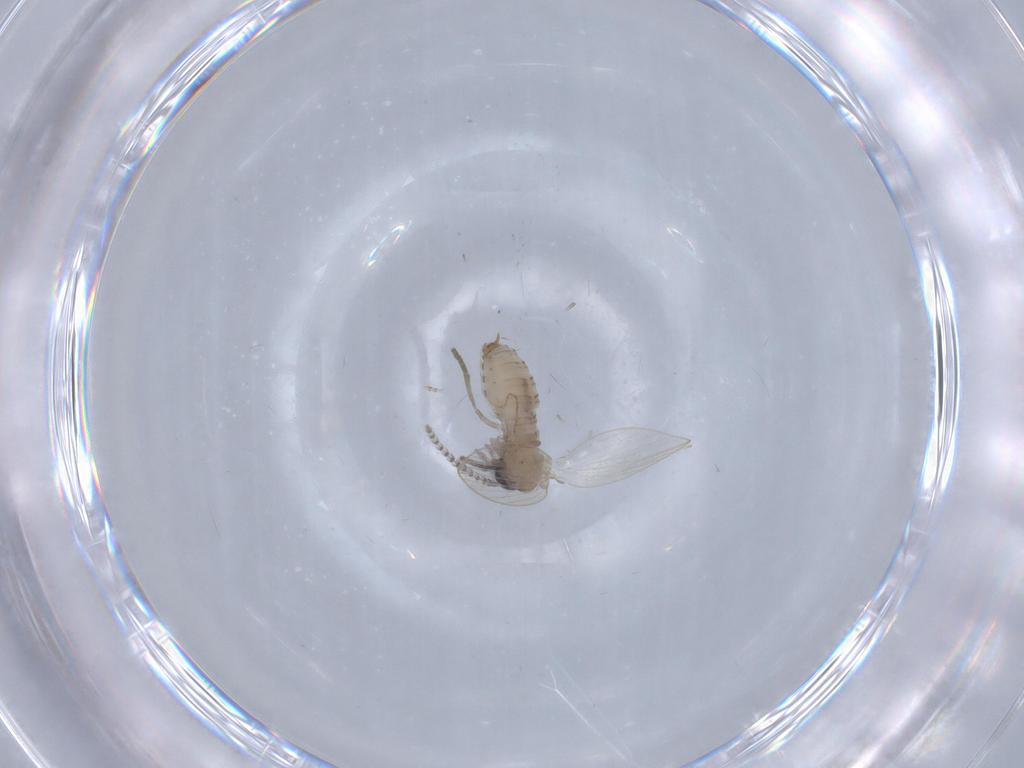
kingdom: Animalia
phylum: Arthropoda
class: Insecta
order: Diptera
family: Psychodidae
